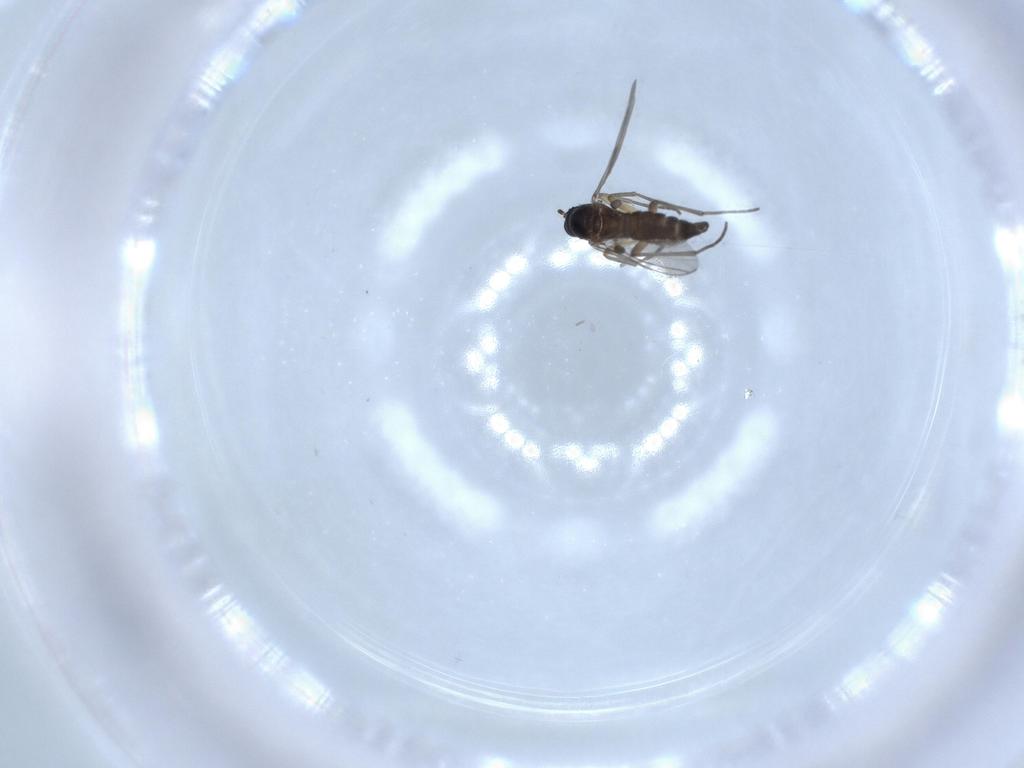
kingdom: Animalia
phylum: Arthropoda
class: Insecta
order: Diptera
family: Sciaridae
